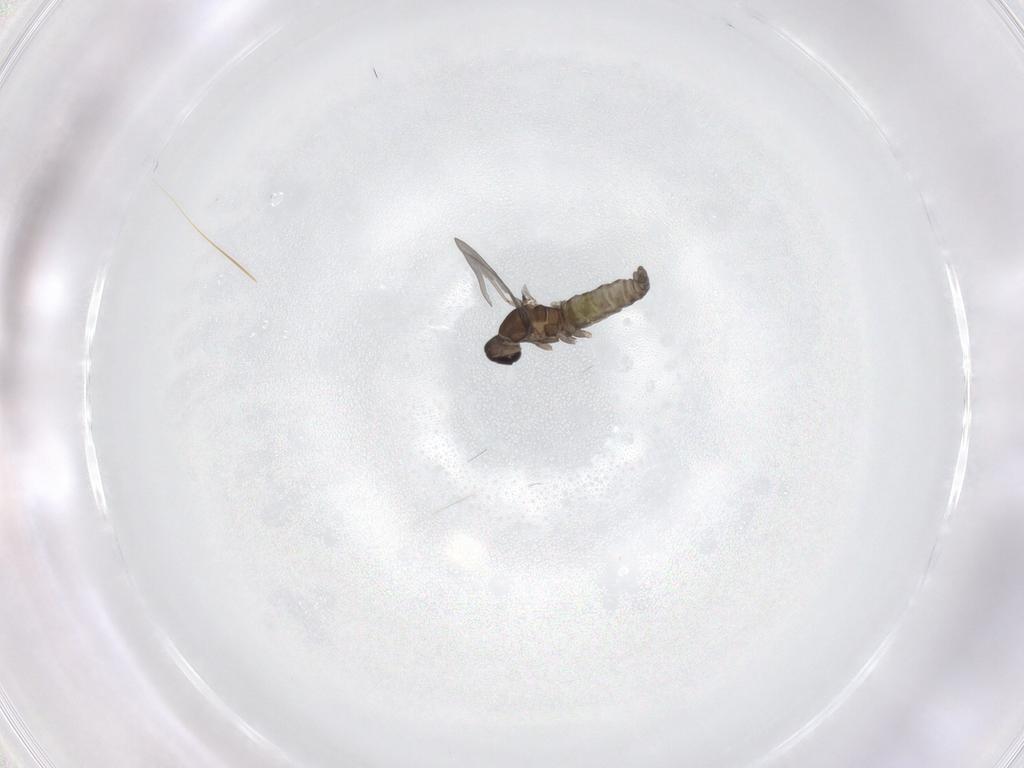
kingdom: Animalia
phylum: Arthropoda
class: Insecta
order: Diptera
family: Cecidomyiidae
